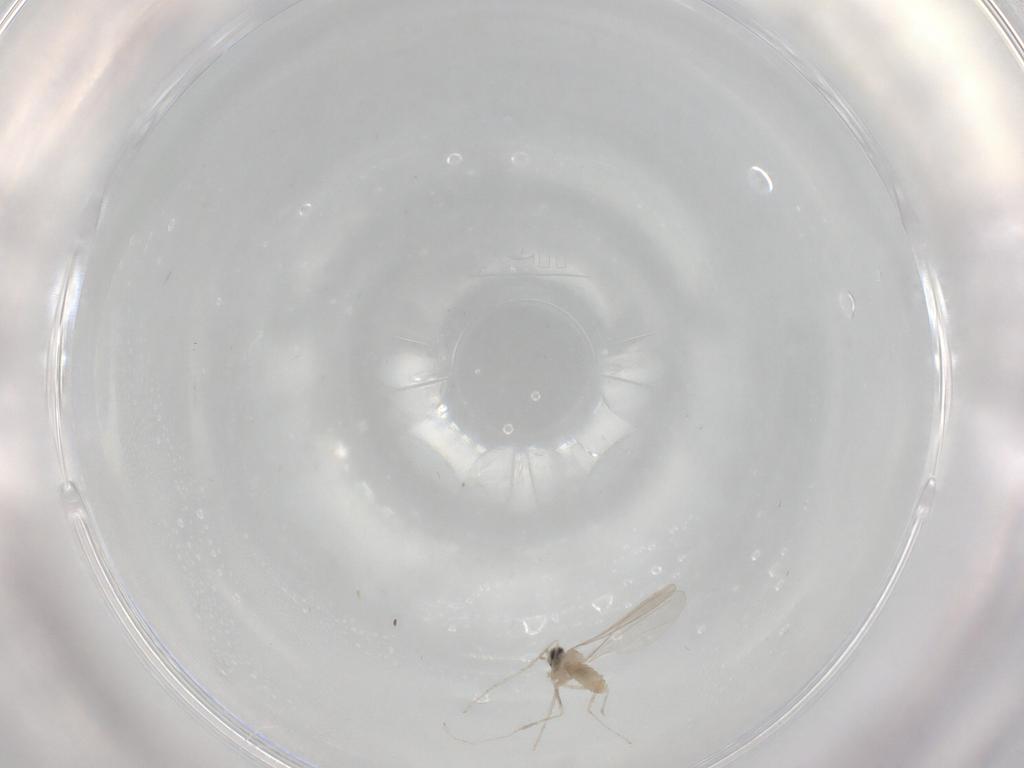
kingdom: Animalia
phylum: Arthropoda
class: Insecta
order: Diptera
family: Cecidomyiidae
